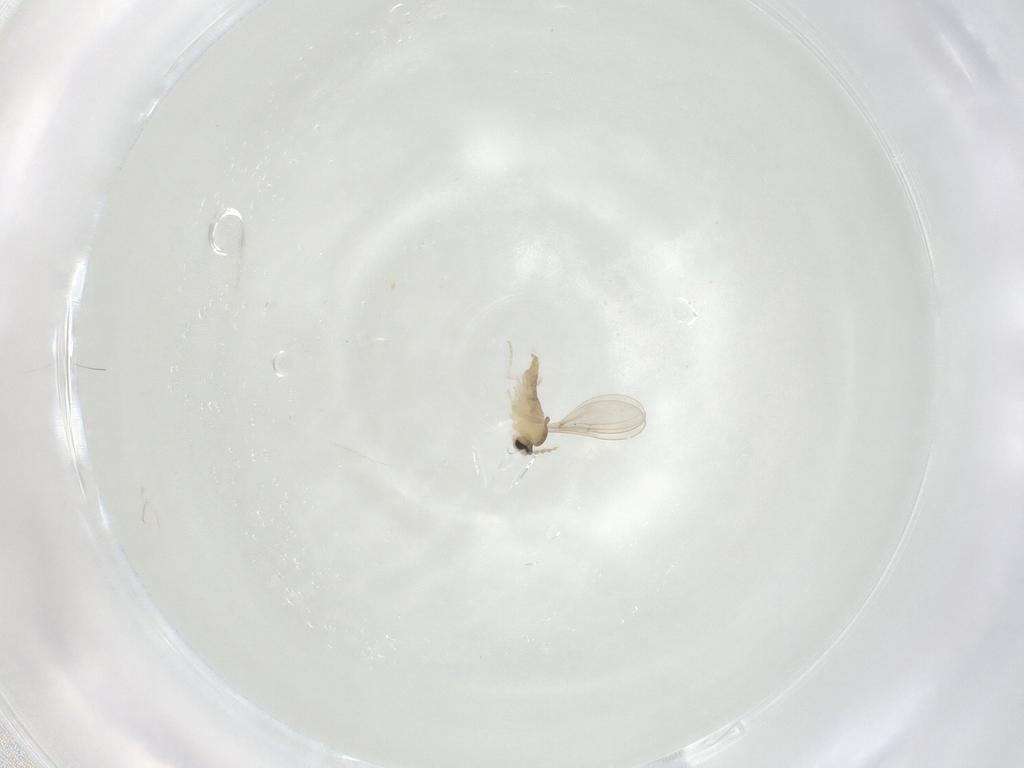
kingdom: Animalia
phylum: Arthropoda
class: Insecta
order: Diptera
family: Cecidomyiidae
